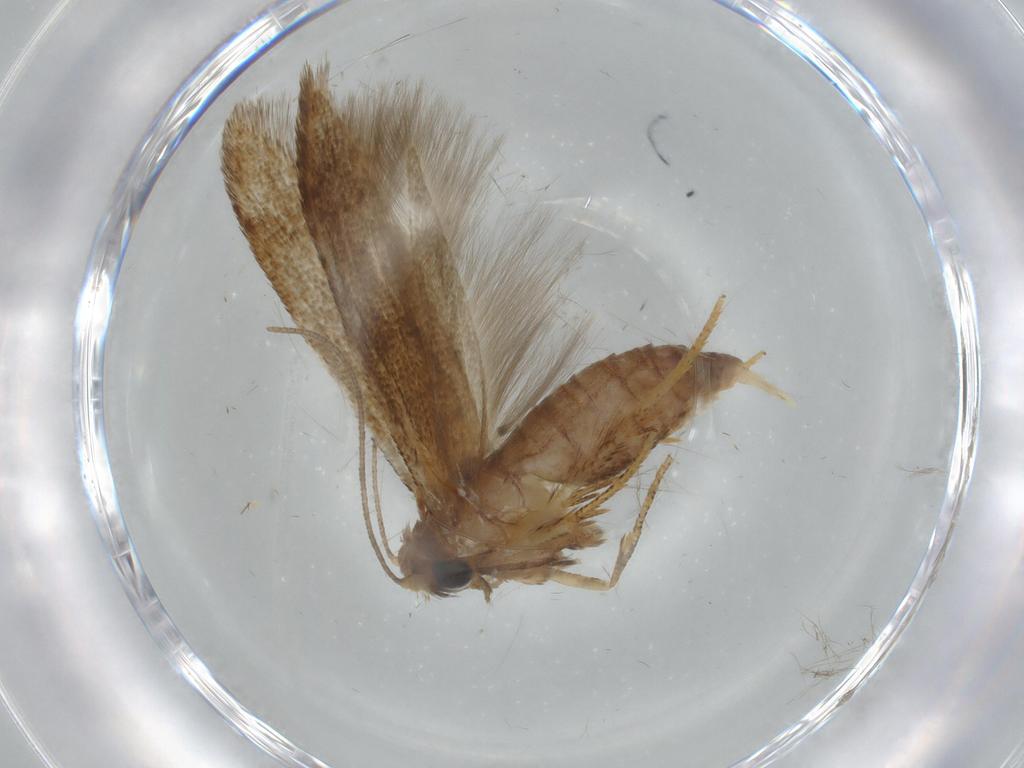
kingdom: Animalia
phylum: Arthropoda
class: Insecta
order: Lepidoptera
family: Blastobasidae
